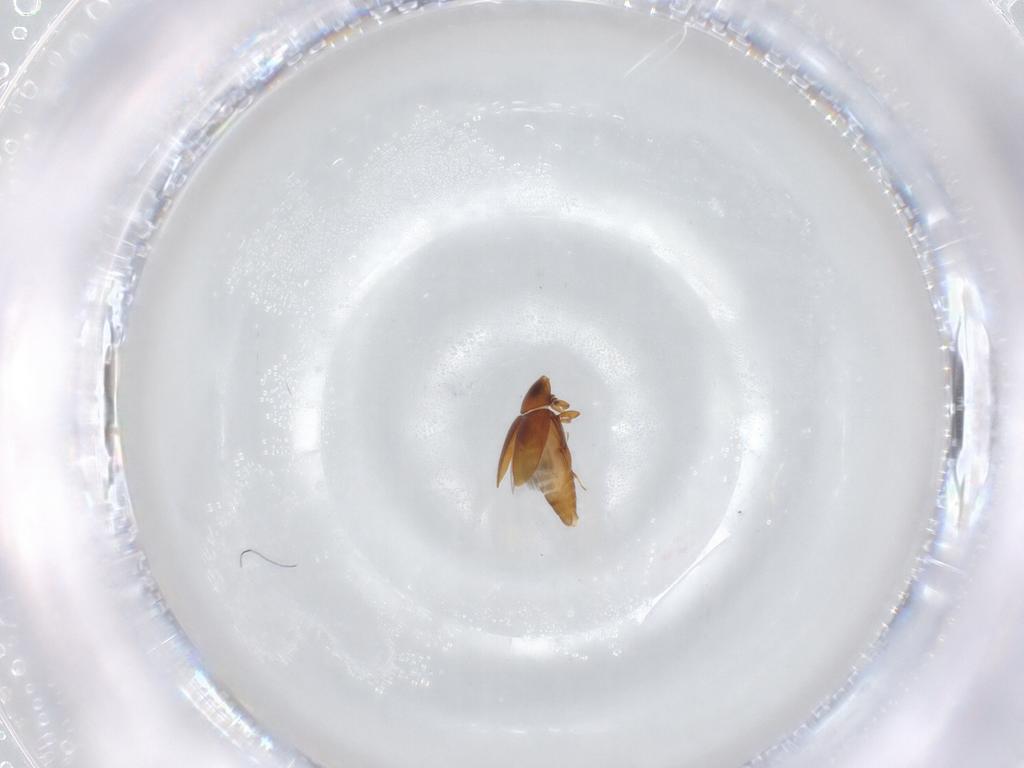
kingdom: Animalia
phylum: Arthropoda
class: Insecta
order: Coleoptera
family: Corylophidae
